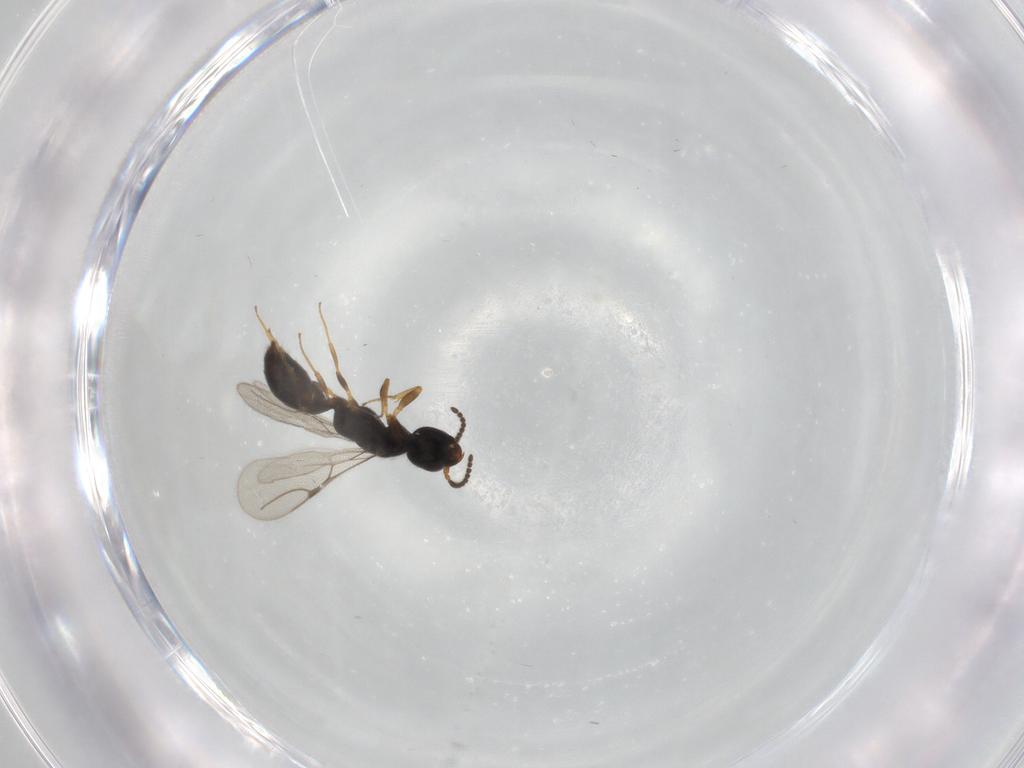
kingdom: Animalia
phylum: Arthropoda
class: Insecta
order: Hymenoptera
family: Bethylidae
